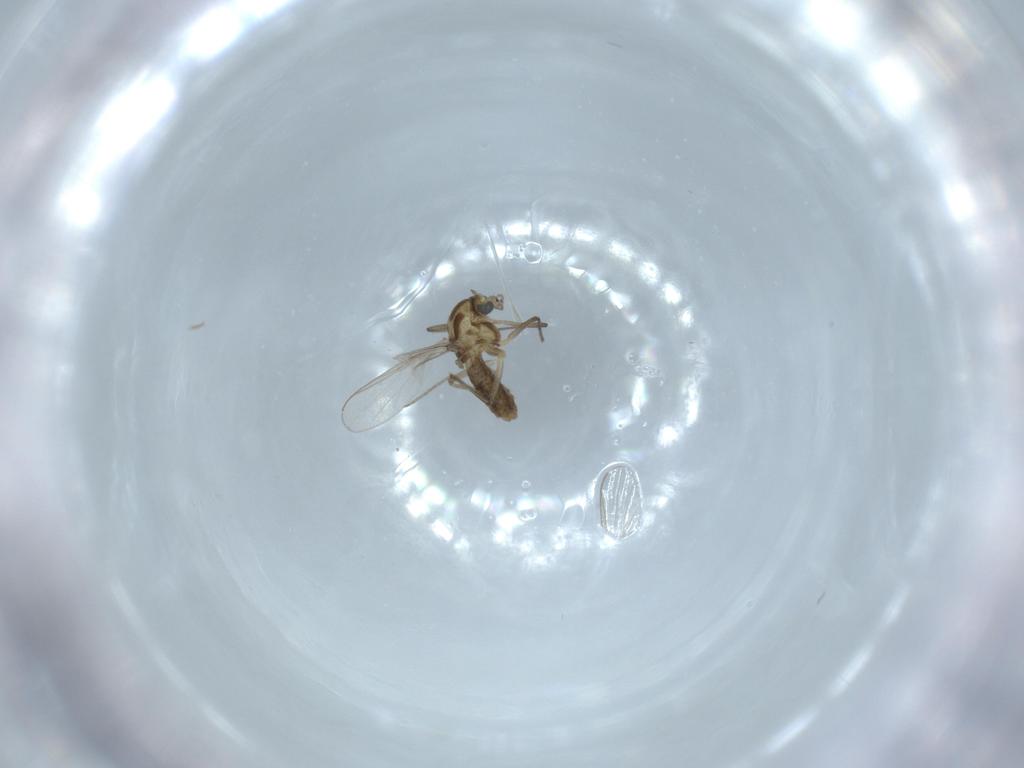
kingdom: Animalia
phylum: Arthropoda
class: Insecta
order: Diptera
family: Chironomidae
